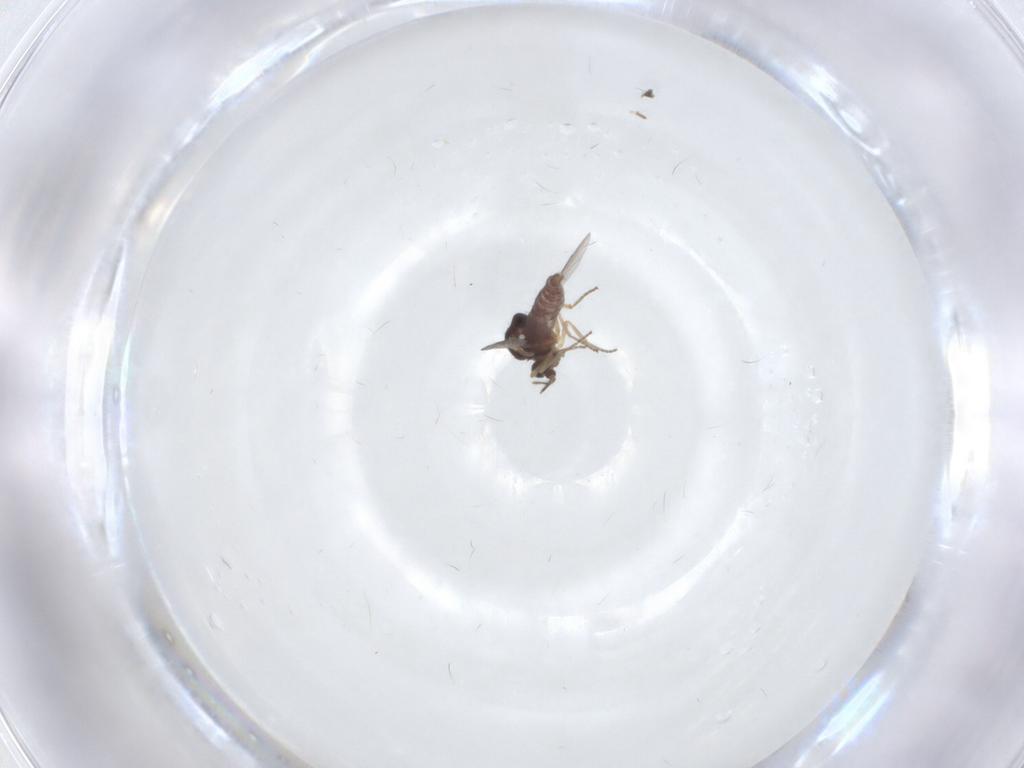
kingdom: Animalia
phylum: Arthropoda
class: Insecta
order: Diptera
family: Ceratopogonidae
